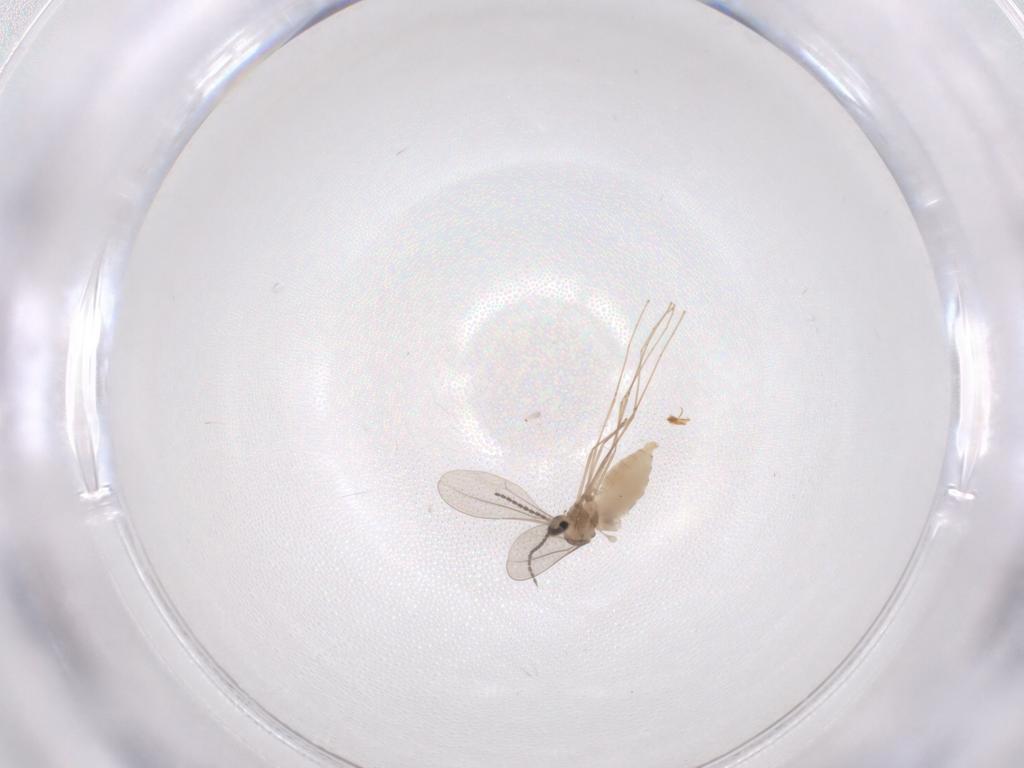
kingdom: Animalia
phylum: Arthropoda
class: Insecta
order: Diptera
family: Cecidomyiidae
